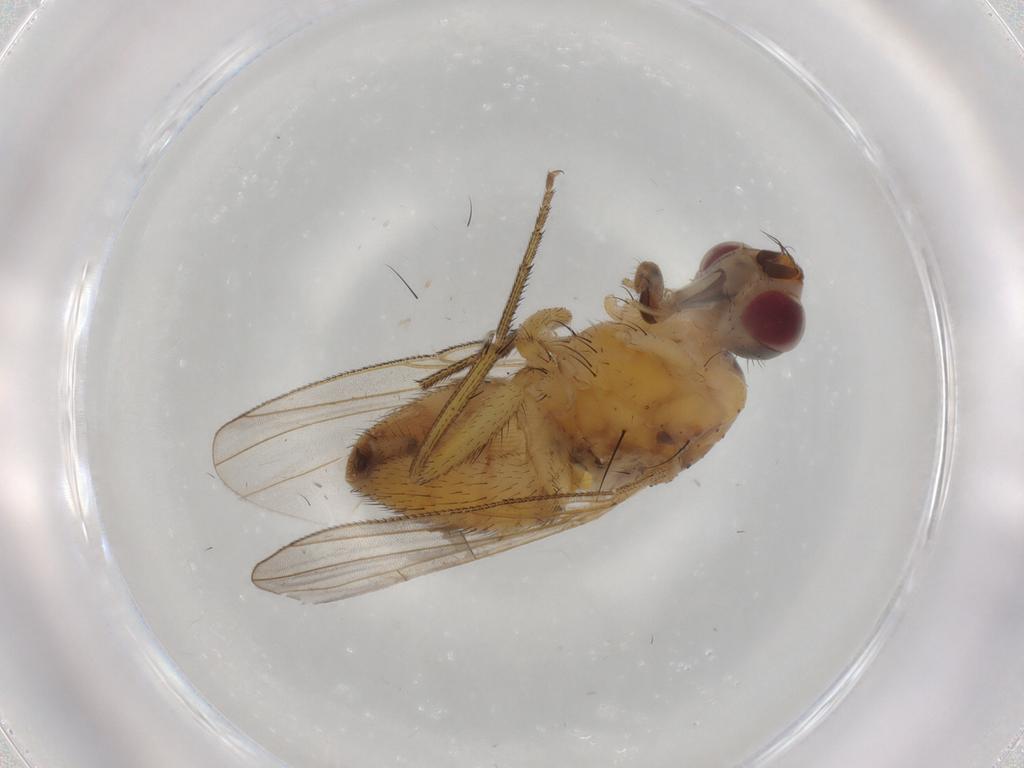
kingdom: Animalia
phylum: Arthropoda
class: Insecta
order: Diptera
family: Muscidae
